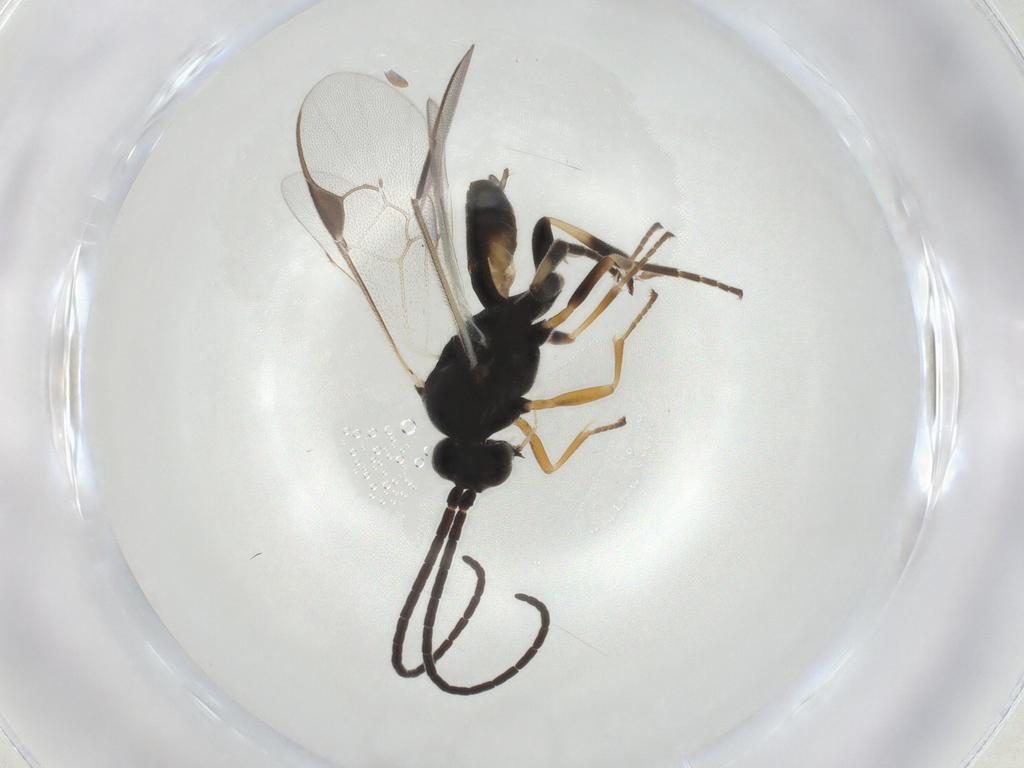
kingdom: Animalia
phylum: Arthropoda
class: Insecta
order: Hymenoptera
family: Braconidae
